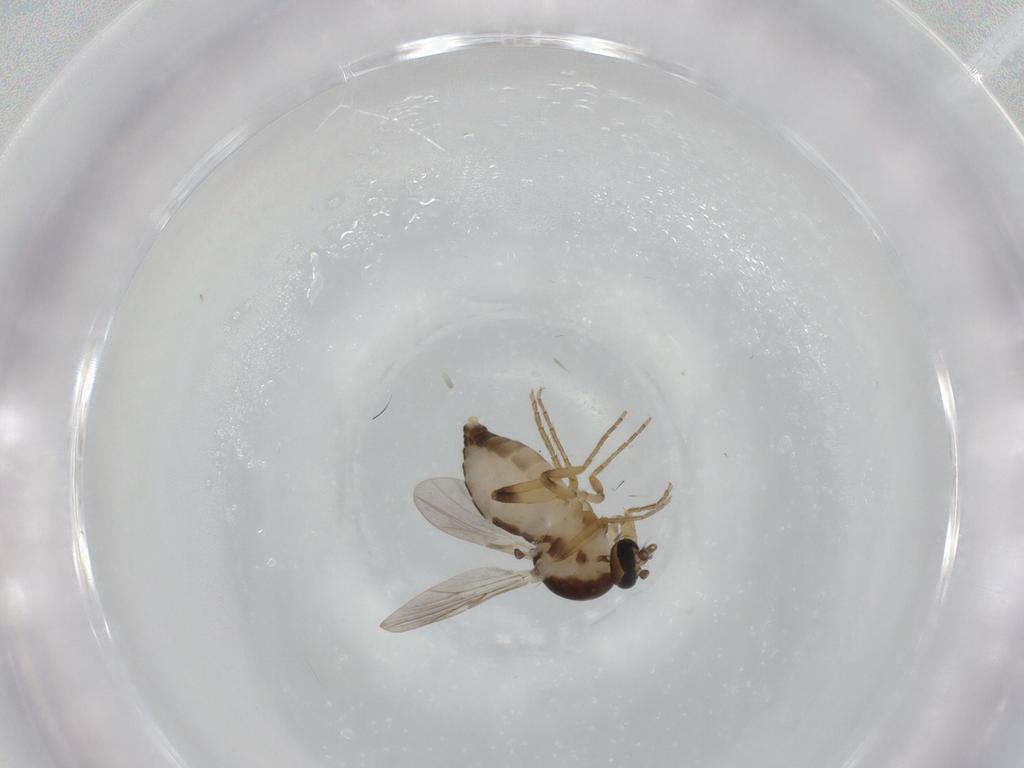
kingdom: Animalia
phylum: Arthropoda
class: Insecta
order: Diptera
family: Ceratopogonidae
